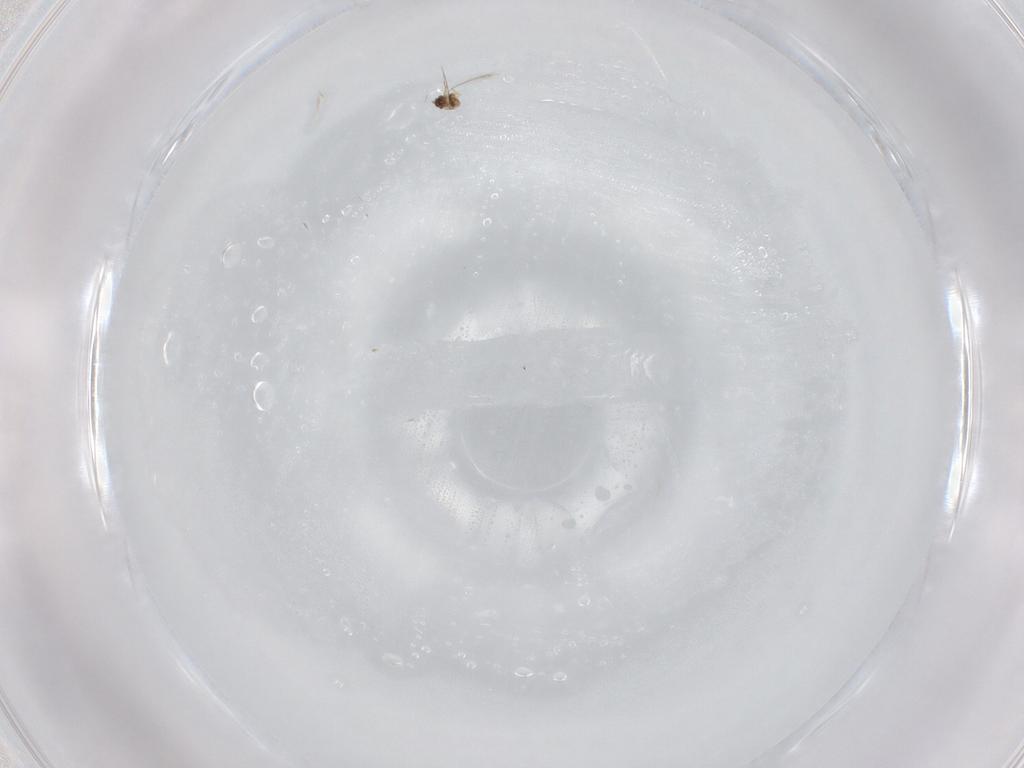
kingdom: Animalia
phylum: Arthropoda
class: Insecta
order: Hymenoptera
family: Mymaridae
